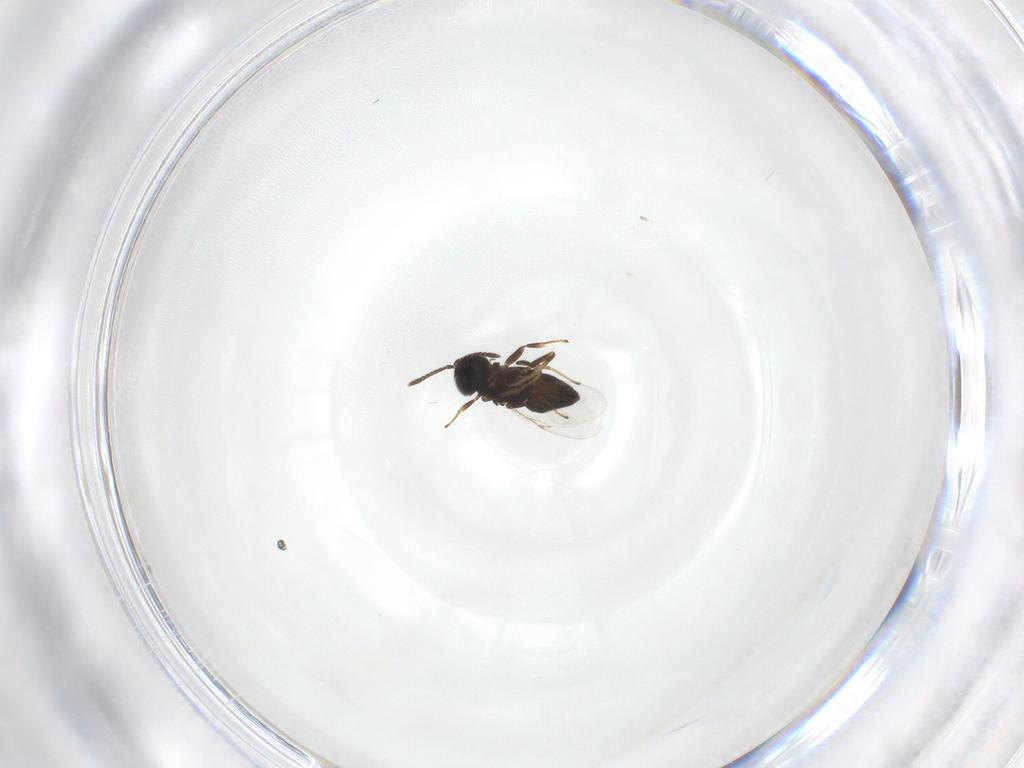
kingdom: Animalia
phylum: Arthropoda
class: Insecta
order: Hymenoptera
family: Encyrtidae
